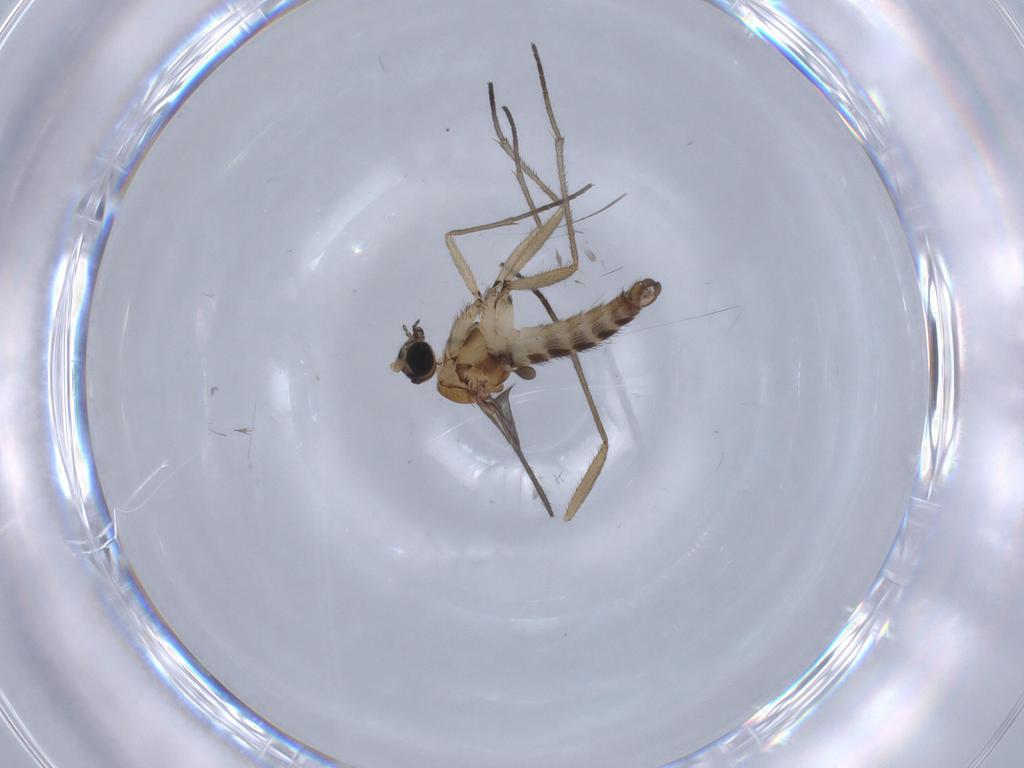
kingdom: Animalia
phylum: Arthropoda
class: Insecta
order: Diptera
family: Sciaridae
